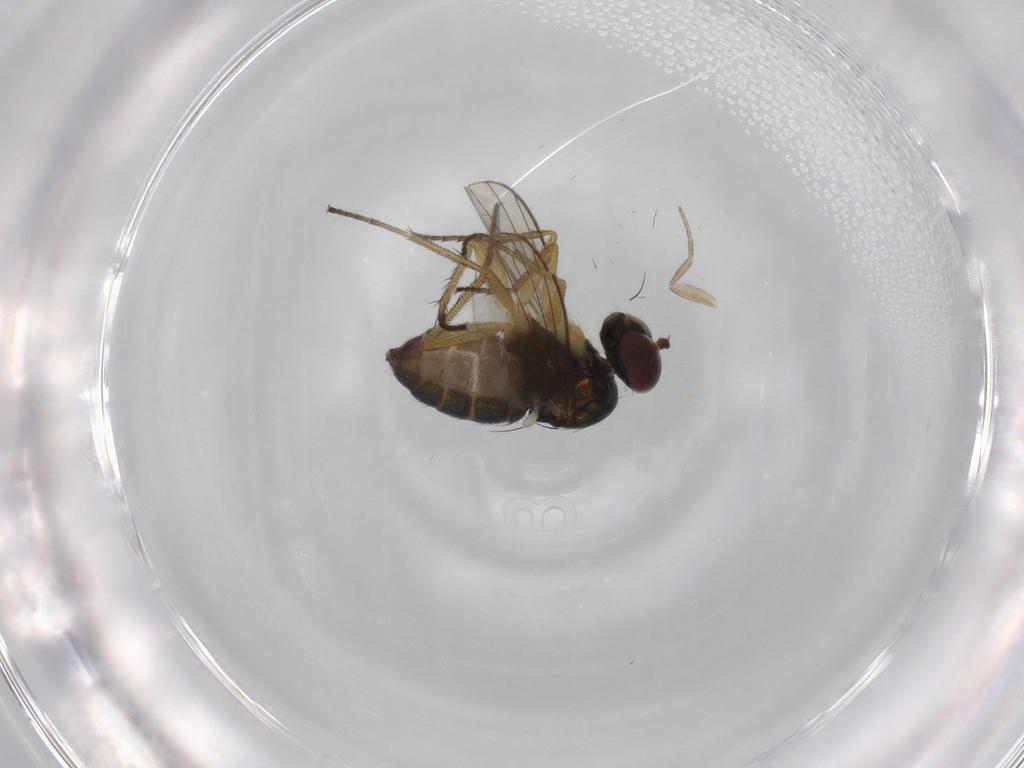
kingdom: Animalia
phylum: Arthropoda
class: Insecta
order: Diptera
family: Dolichopodidae
